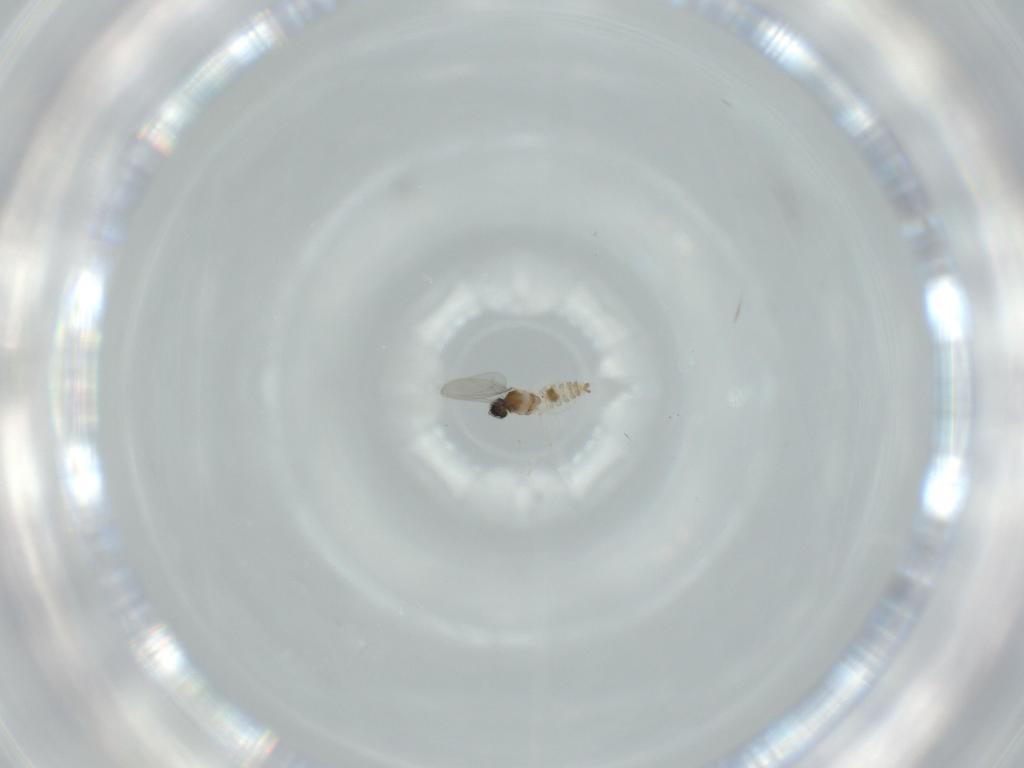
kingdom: Animalia
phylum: Arthropoda
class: Insecta
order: Diptera
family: Cecidomyiidae
